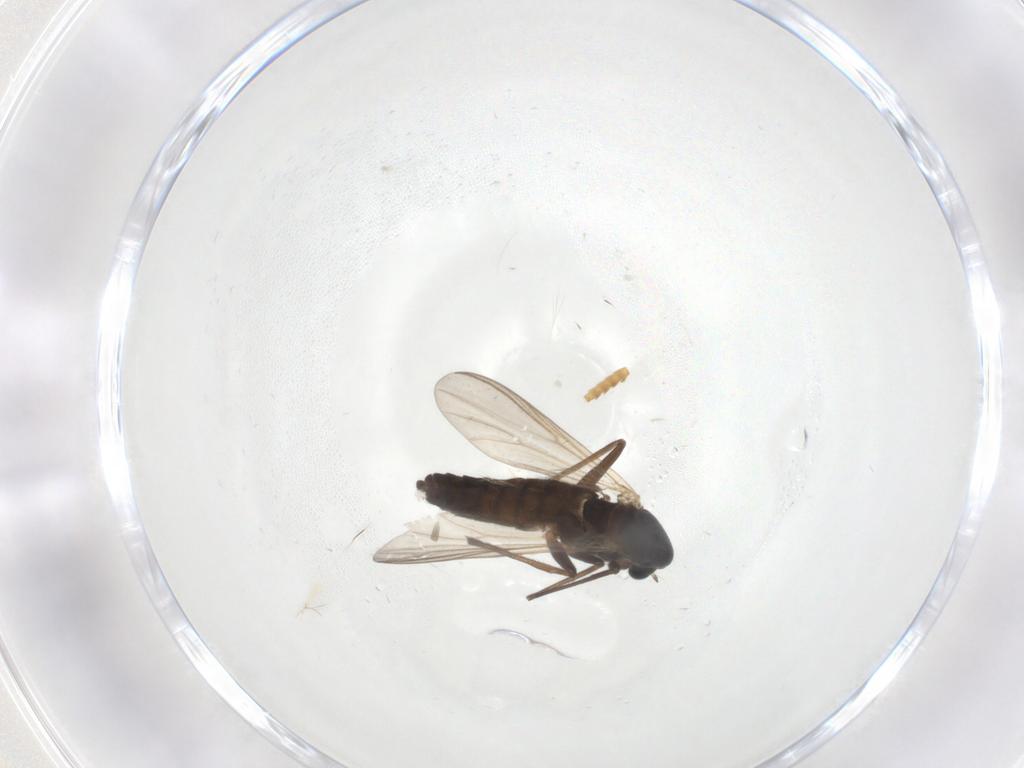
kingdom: Animalia
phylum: Arthropoda
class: Insecta
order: Diptera
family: Chironomidae
